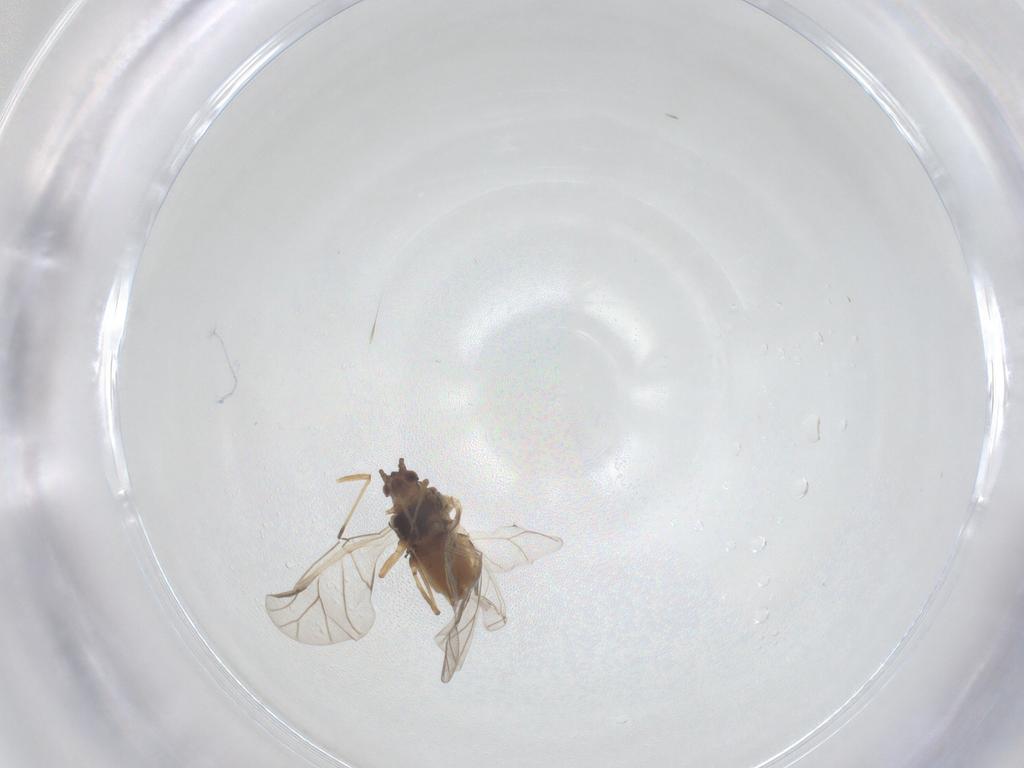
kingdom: Animalia
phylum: Arthropoda
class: Insecta
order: Hemiptera
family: Aphididae
